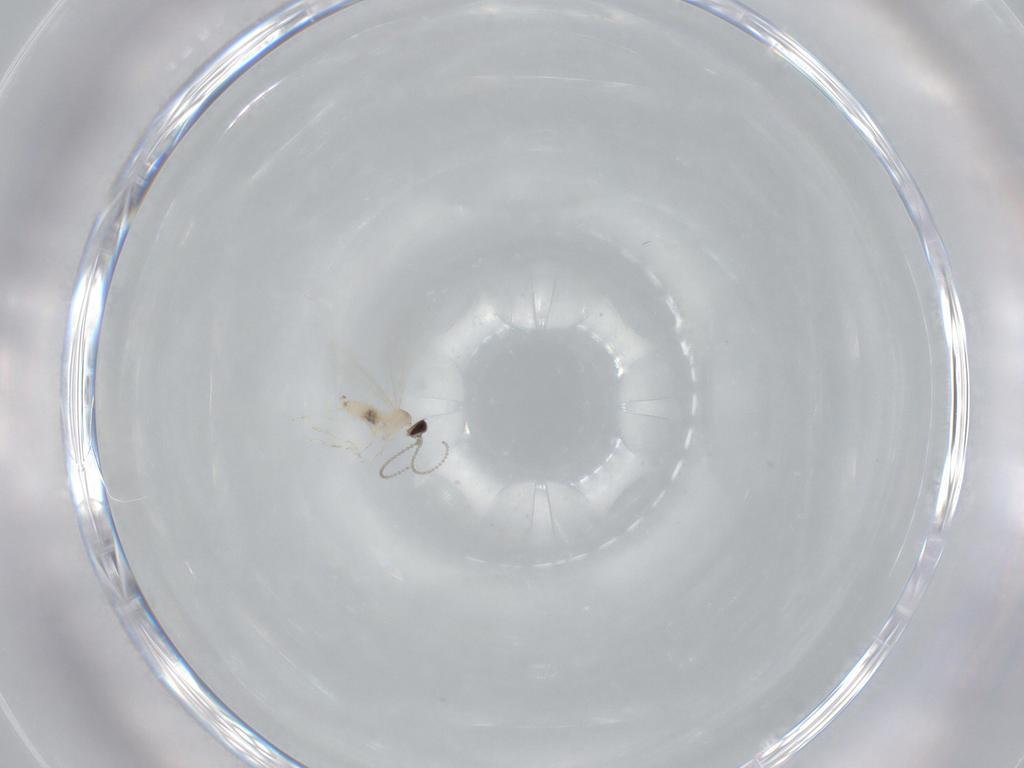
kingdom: Animalia
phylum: Arthropoda
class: Insecta
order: Diptera
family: Cecidomyiidae
